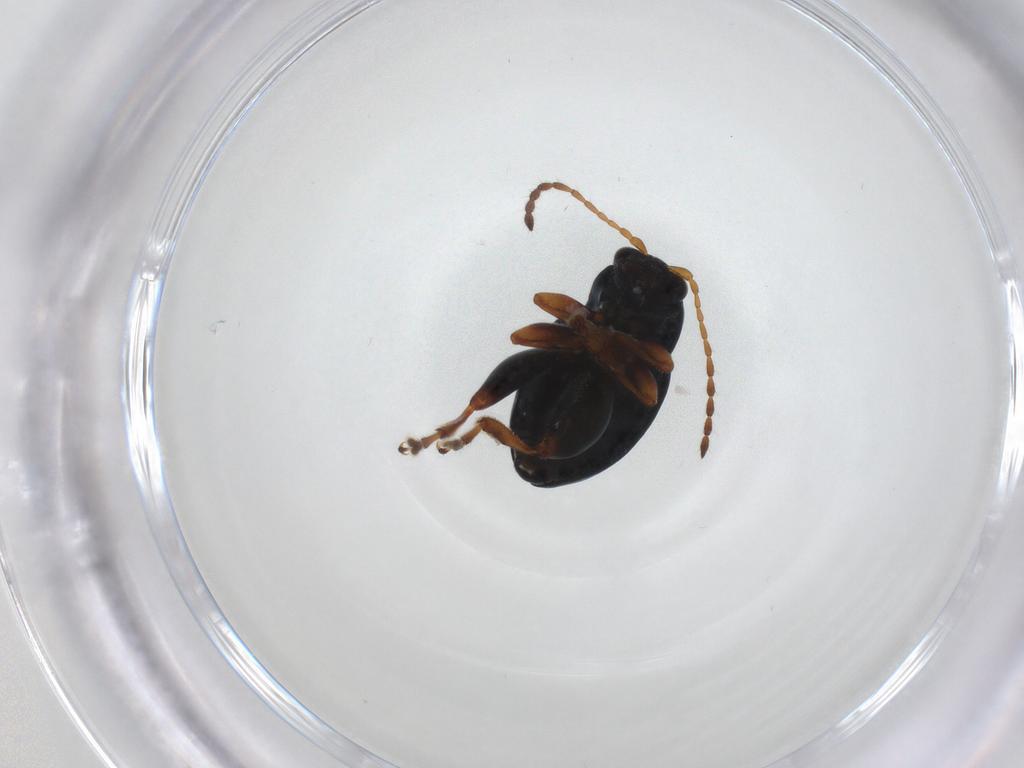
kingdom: Animalia
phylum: Arthropoda
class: Insecta
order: Coleoptera
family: Chrysomelidae
